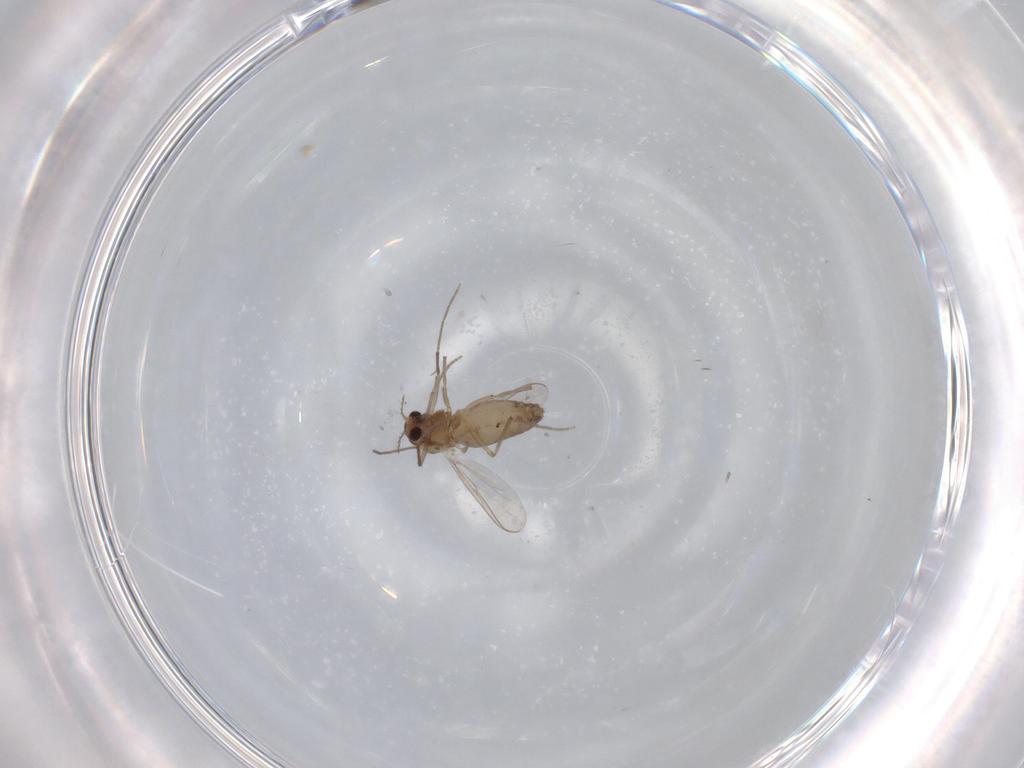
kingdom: Animalia
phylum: Arthropoda
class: Insecta
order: Diptera
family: Chironomidae
